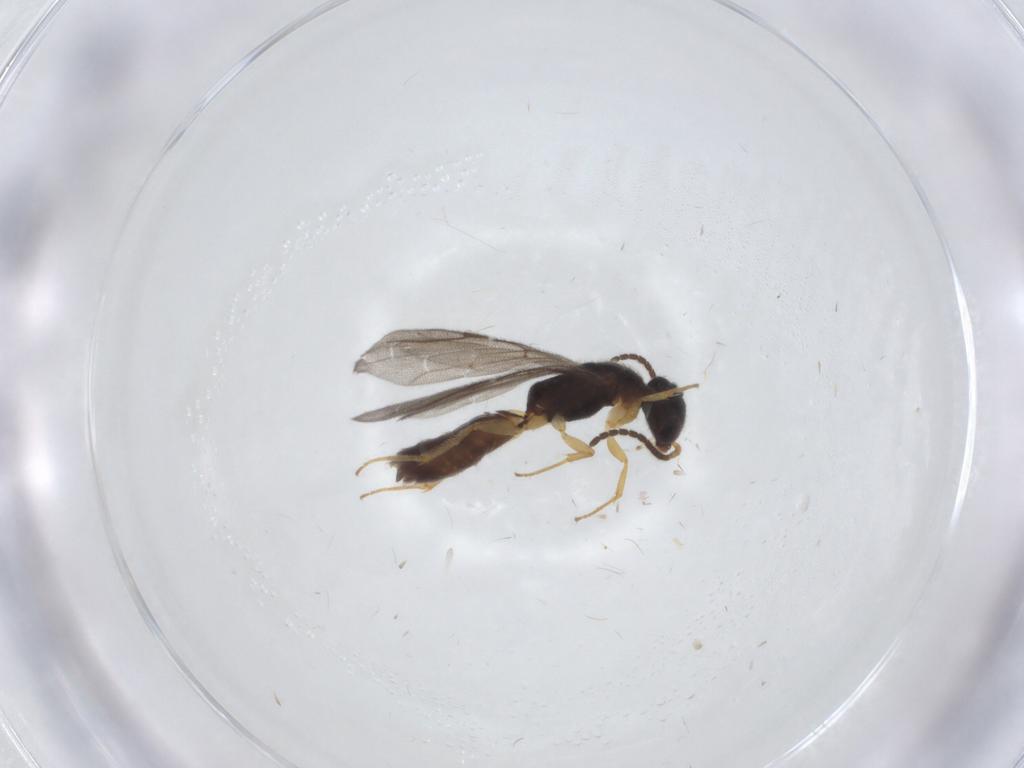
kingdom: Animalia
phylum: Arthropoda
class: Insecta
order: Hymenoptera
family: Bethylidae
